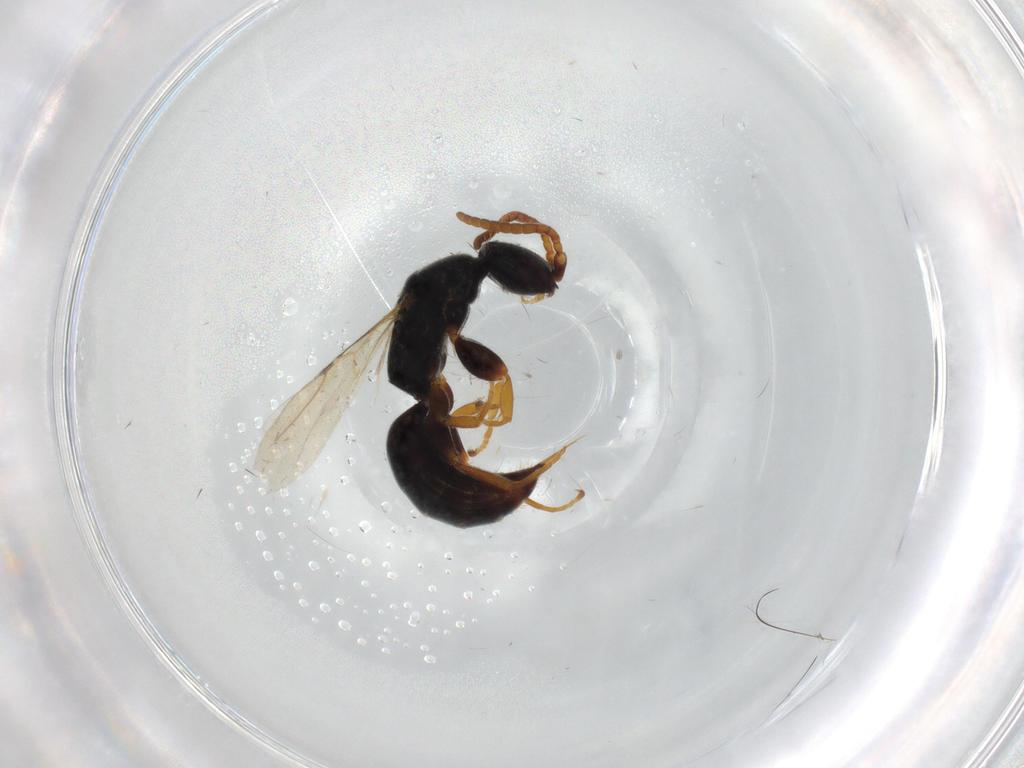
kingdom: Animalia
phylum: Arthropoda
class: Insecta
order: Hymenoptera
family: Bethylidae
